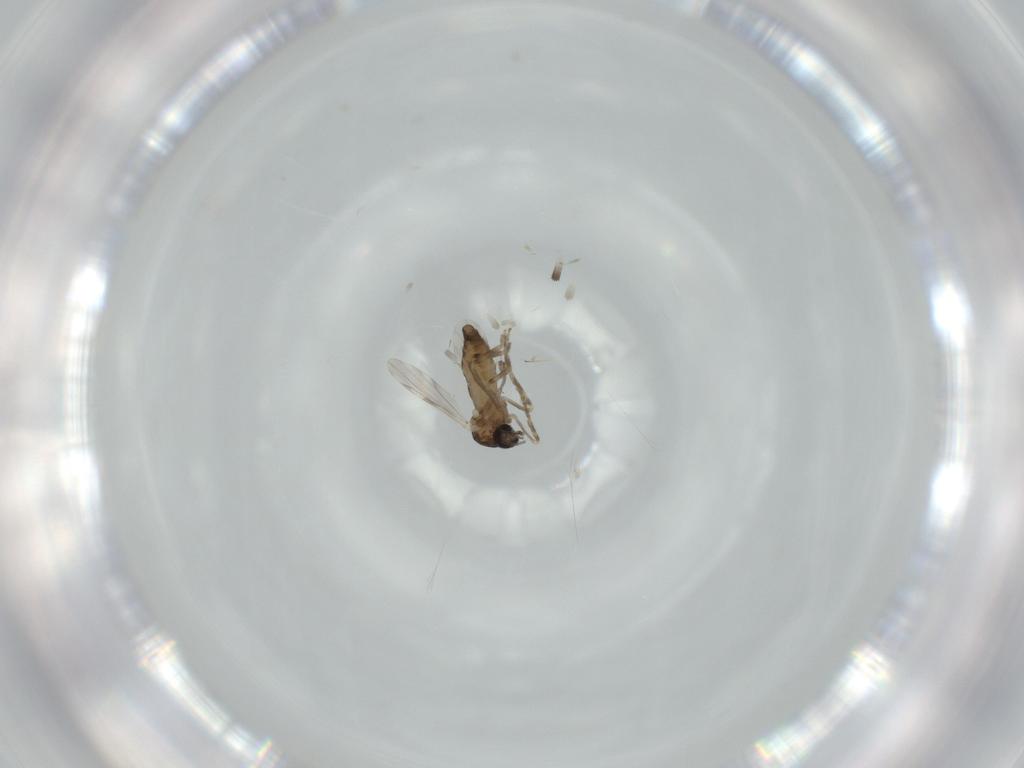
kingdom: Animalia
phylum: Arthropoda
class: Insecta
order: Diptera
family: Ceratopogonidae
